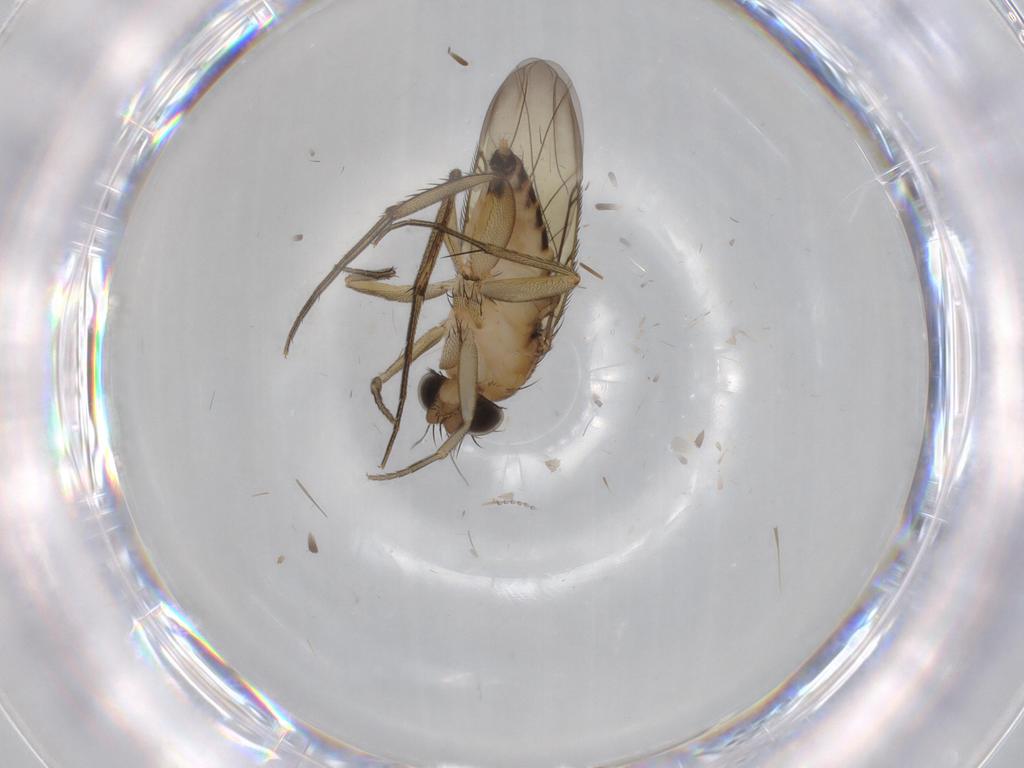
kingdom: Animalia
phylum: Arthropoda
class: Insecta
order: Diptera
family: Phoridae
